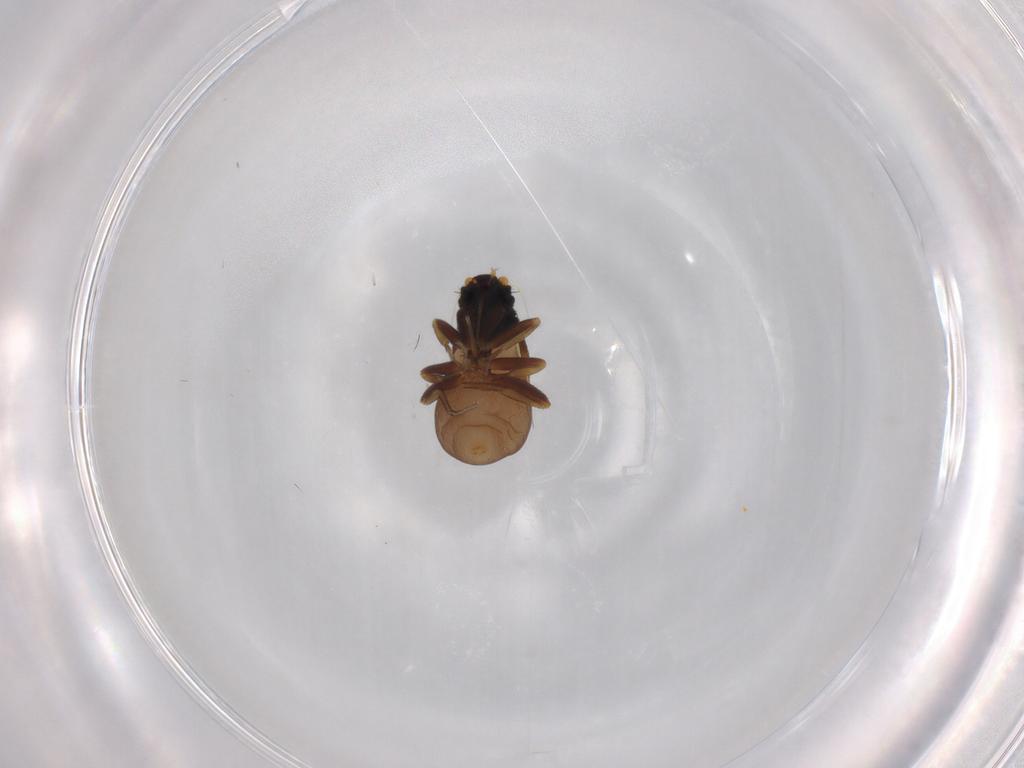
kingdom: Animalia
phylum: Arthropoda
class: Insecta
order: Diptera
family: Phoridae
